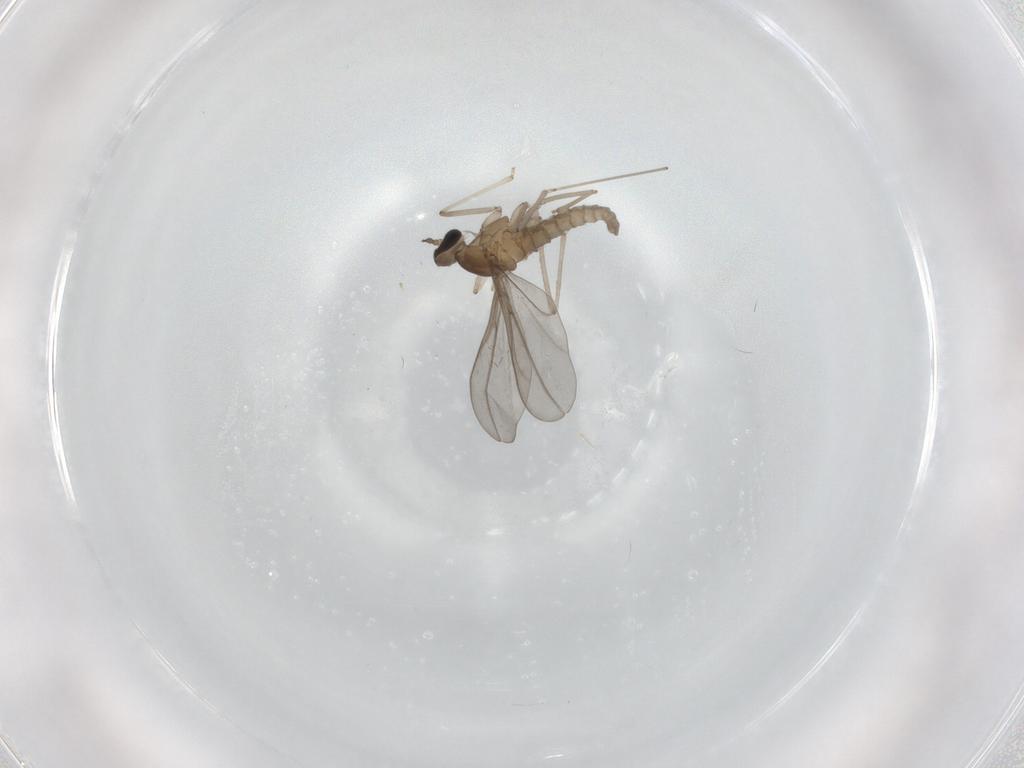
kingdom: Animalia
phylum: Arthropoda
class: Insecta
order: Diptera
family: Cecidomyiidae
